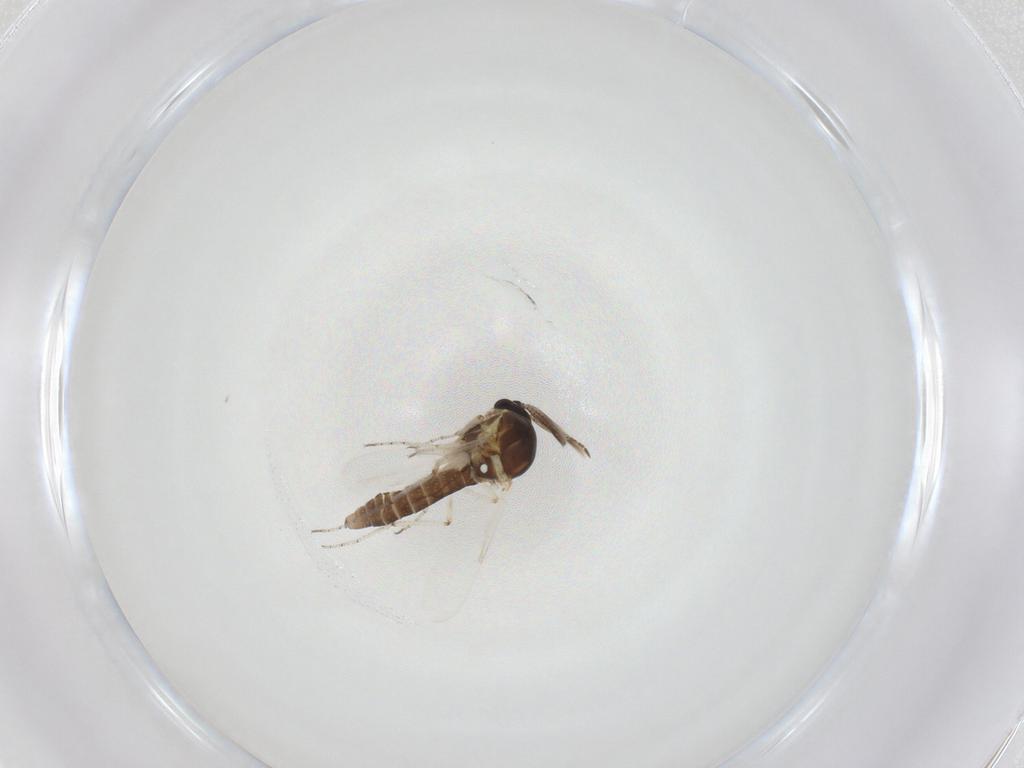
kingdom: Animalia
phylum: Arthropoda
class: Insecta
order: Diptera
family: Ceratopogonidae
